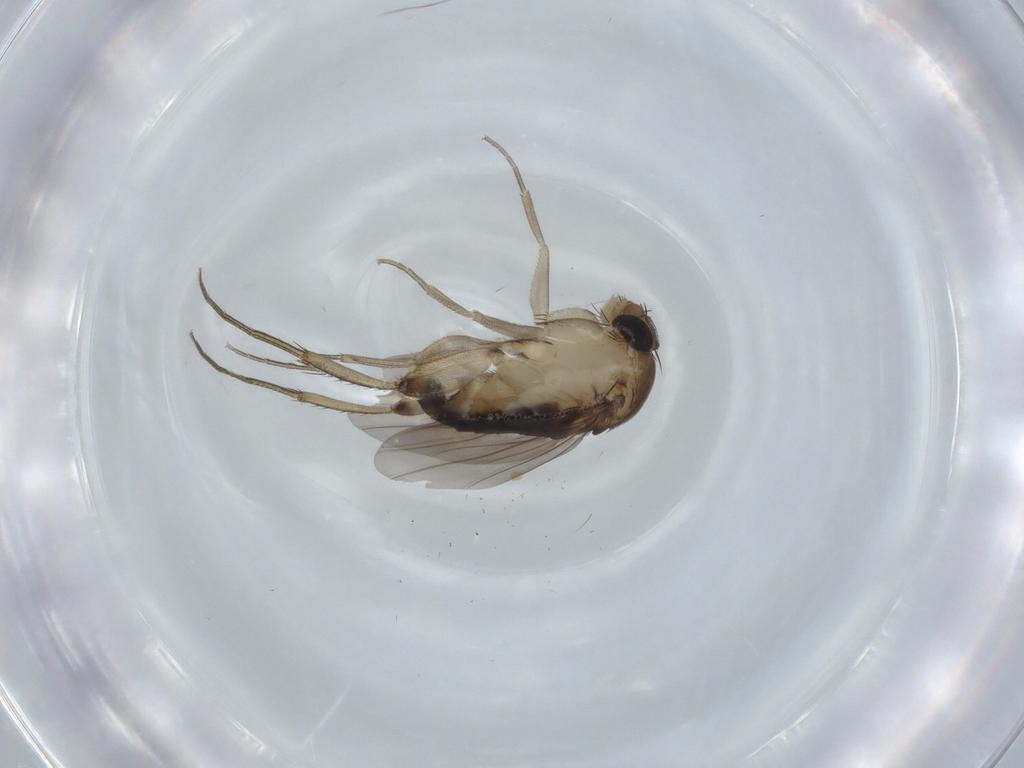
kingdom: Animalia
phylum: Arthropoda
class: Insecta
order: Diptera
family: Phoridae
